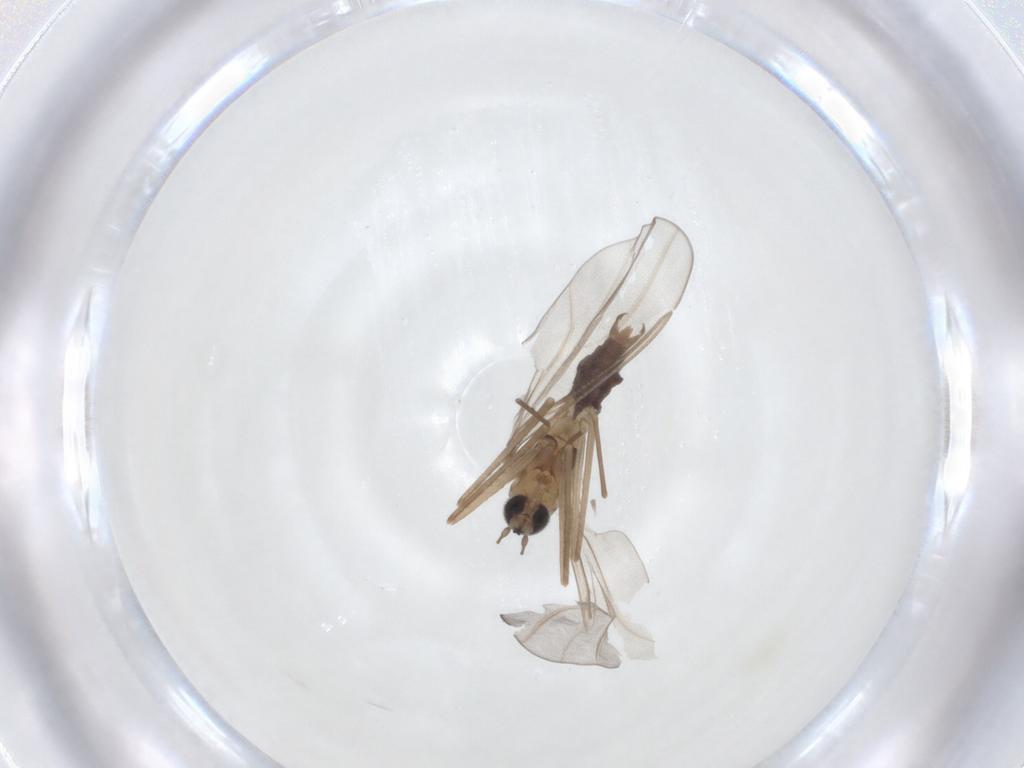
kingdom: Animalia
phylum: Arthropoda
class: Insecta
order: Diptera
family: Cecidomyiidae
